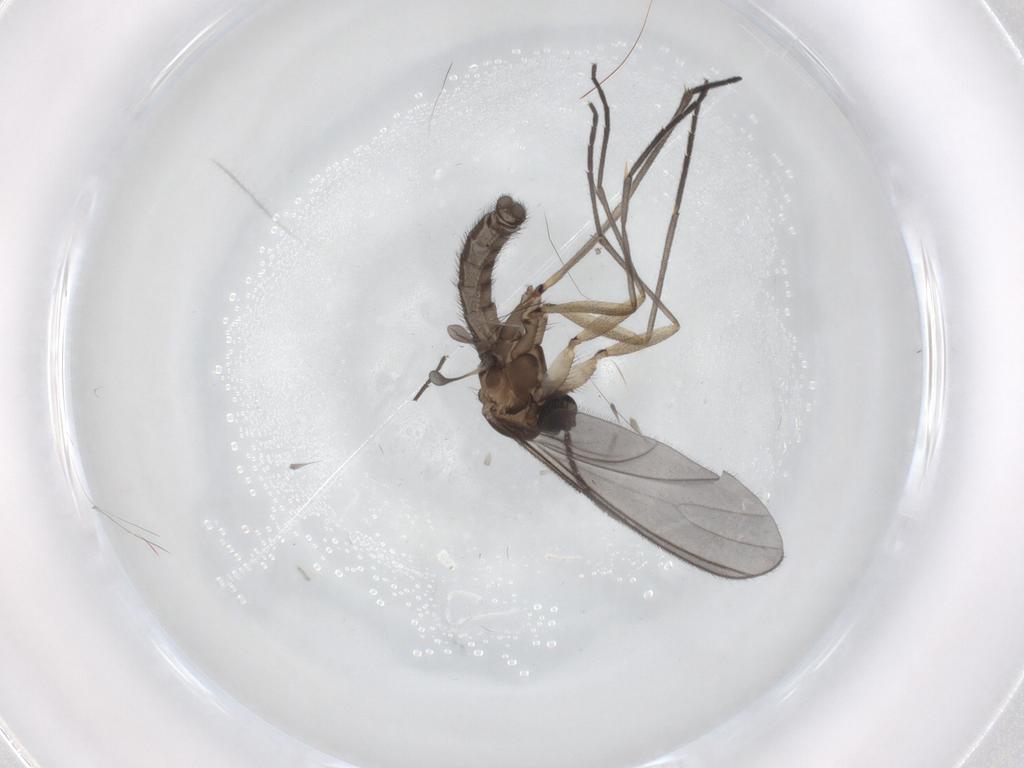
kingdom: Animalia
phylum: Arthropoda
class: Insecta
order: Diptera
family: Sciaridae
